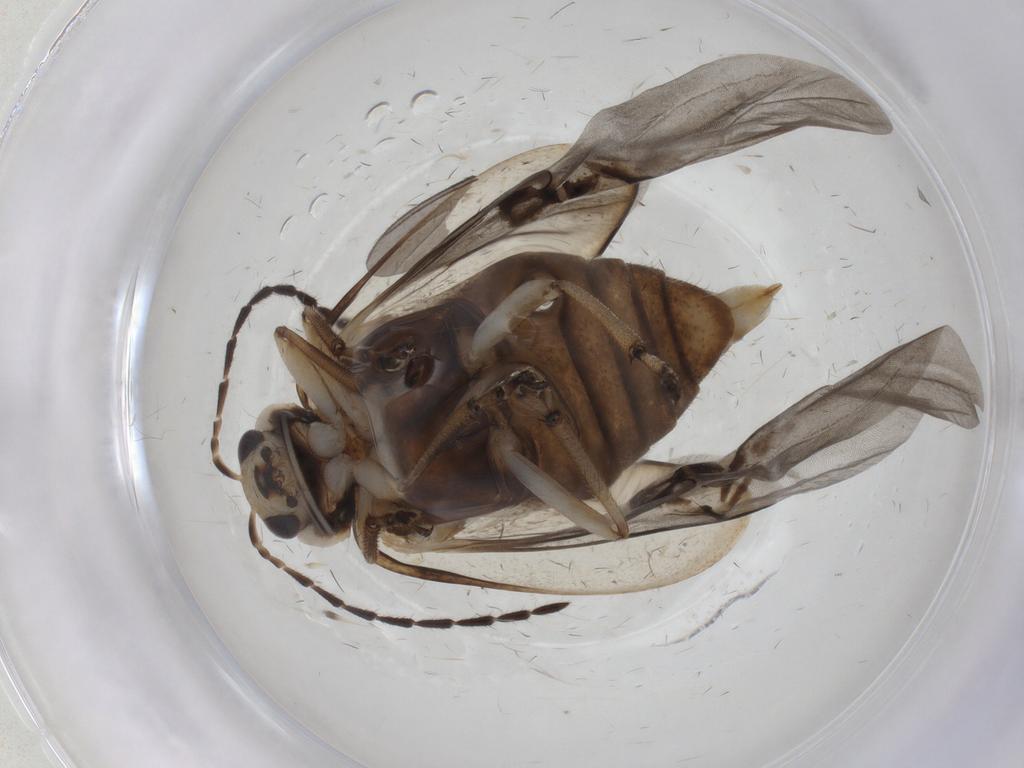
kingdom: Animalia
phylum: Arthropoda
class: Insecta
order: Coleoptera
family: Chrysomelidae
